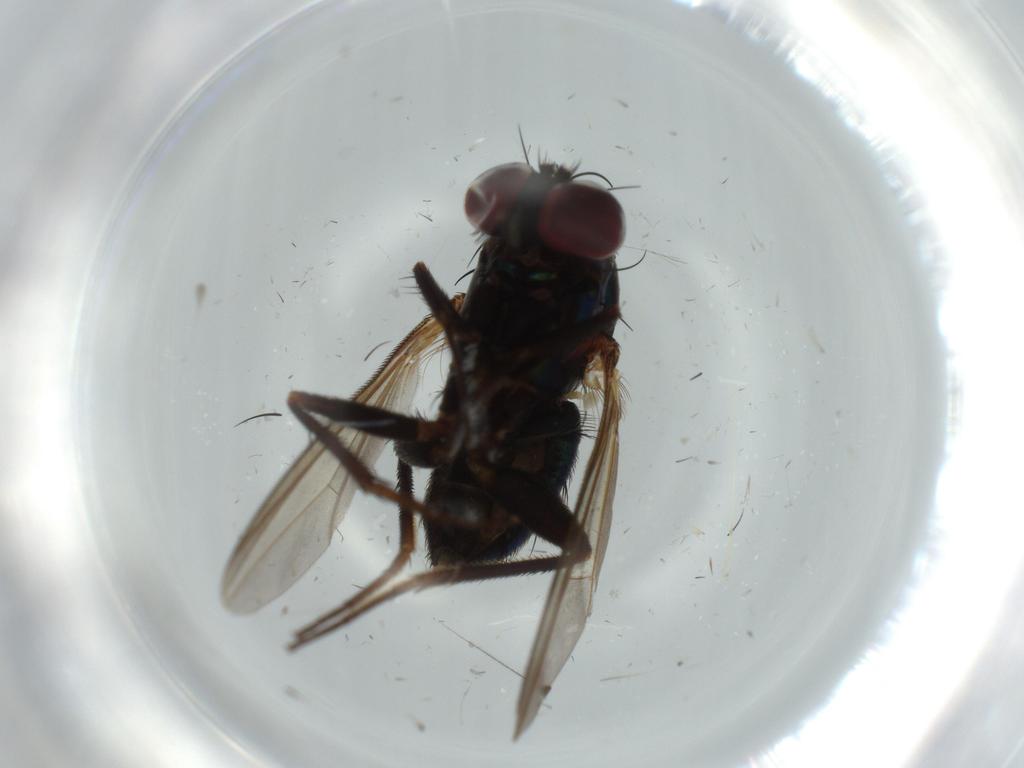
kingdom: Animalia
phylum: Arthropoda
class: Insecta
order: Diptera
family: Dolichopodidae
